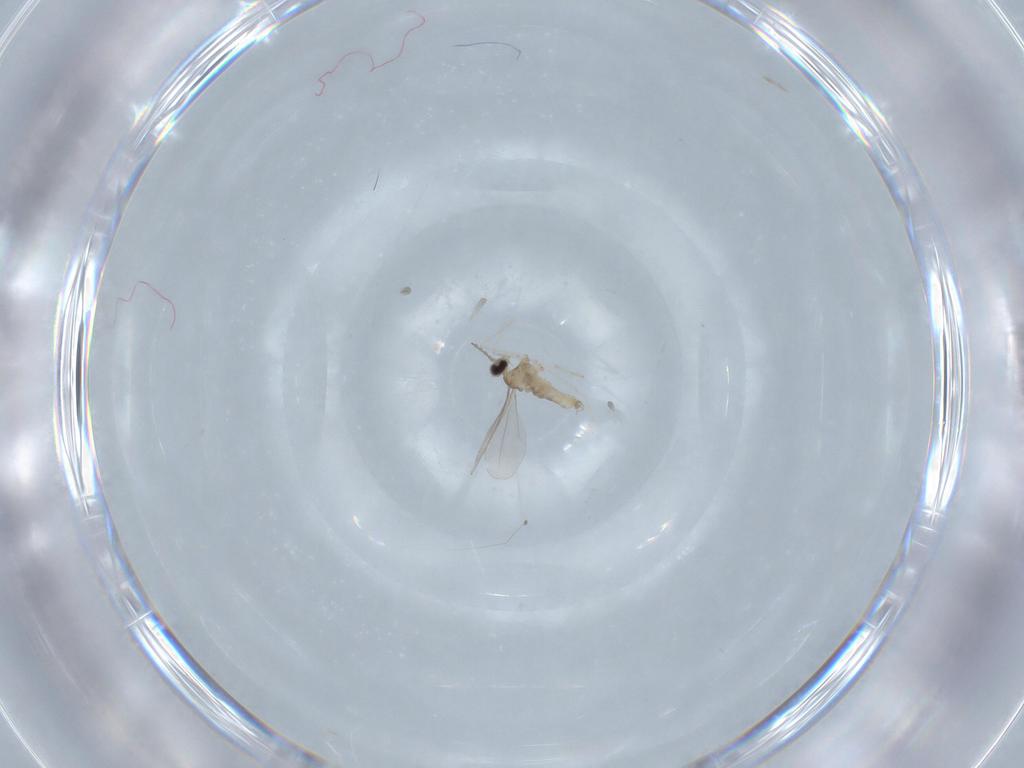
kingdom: Animalia
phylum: Arthropoda
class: Insecta
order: Diptera
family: Cecidomyiidae
